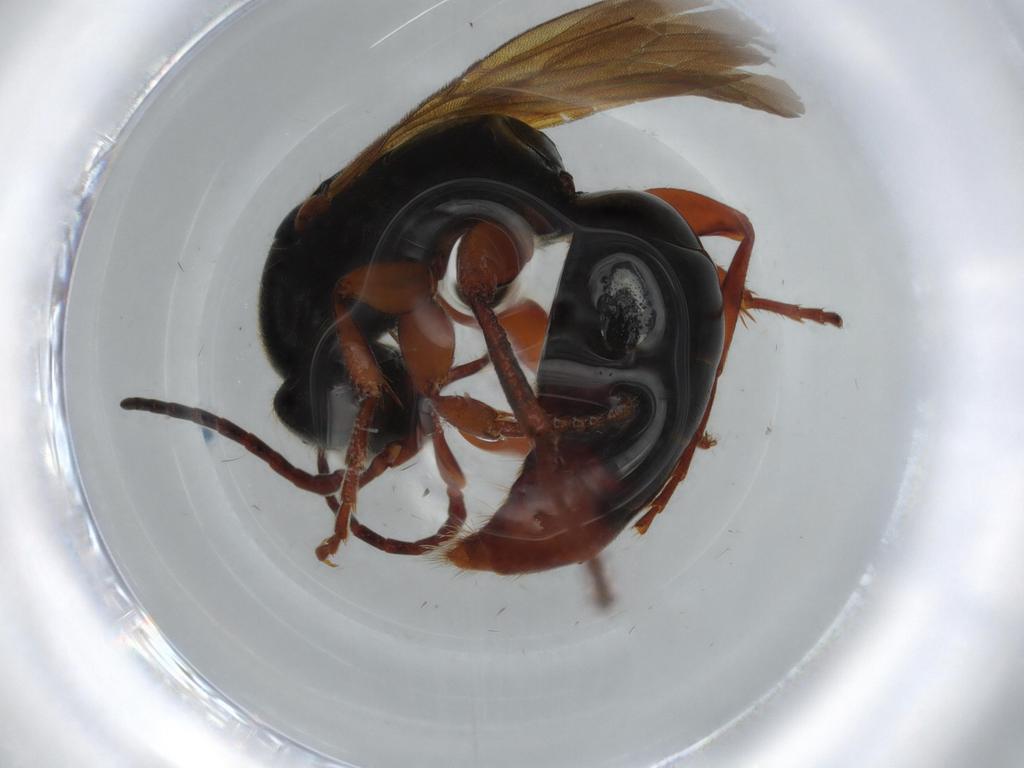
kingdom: Animalia
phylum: Arthropoda
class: Insecta
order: Hymenoptera
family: Bethylidae
